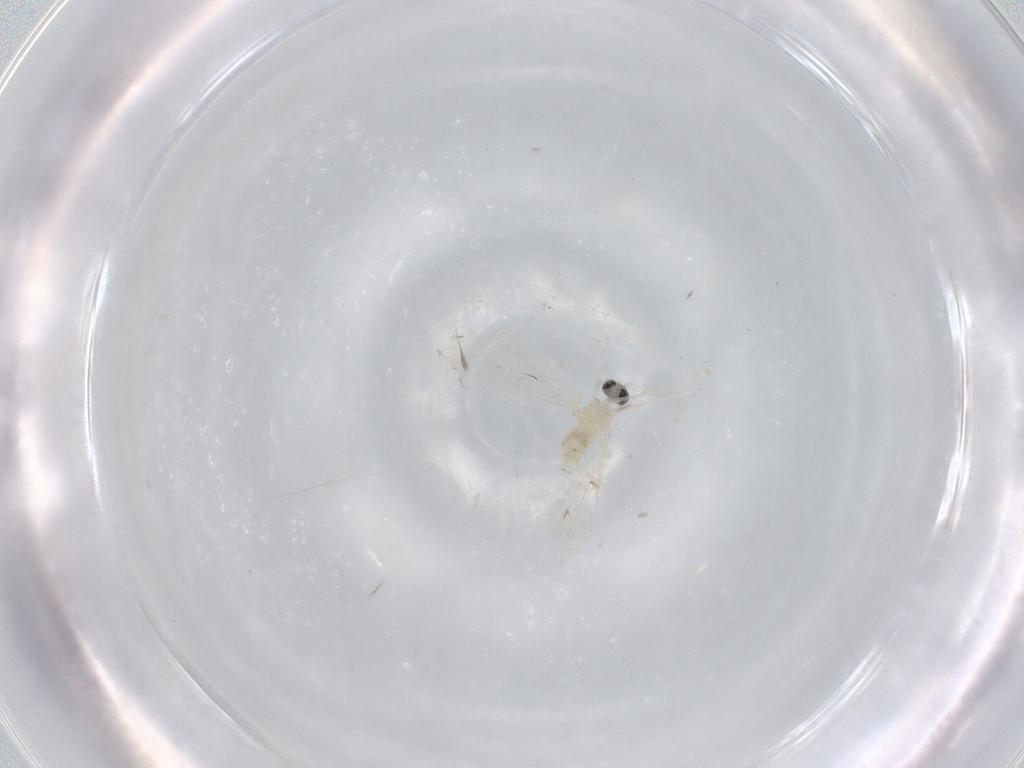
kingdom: Animalia
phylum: Arthropoda
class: Insecta
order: Diptera
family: Cecidomyiidae
